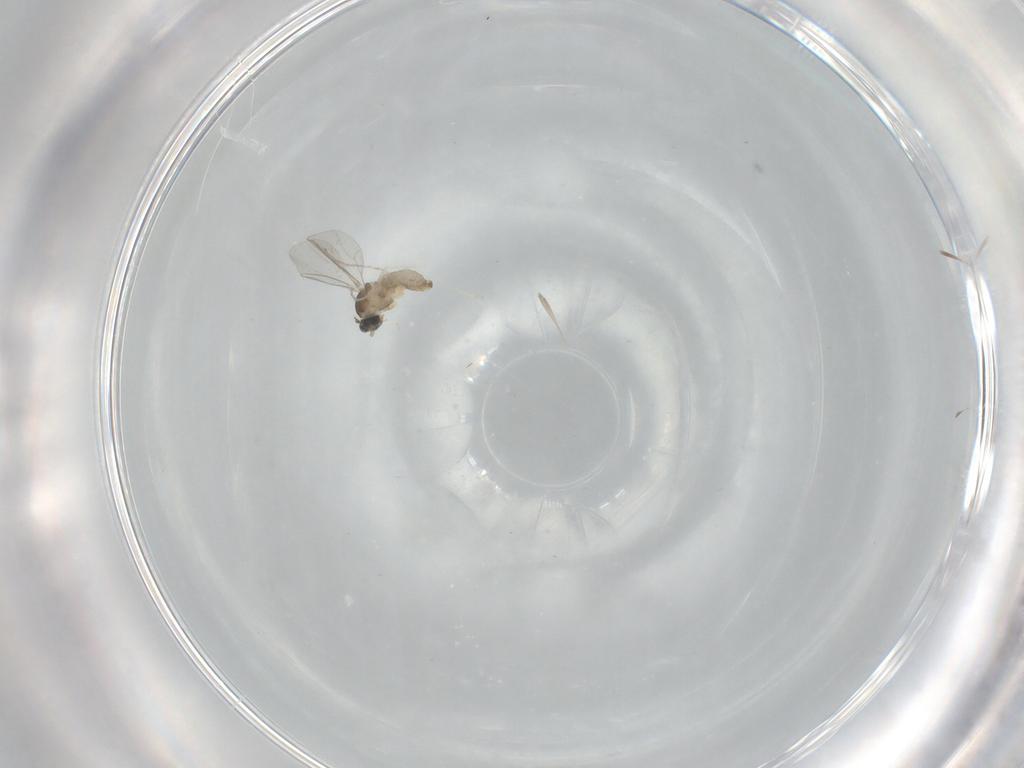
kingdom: Animalia
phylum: Arthropoda
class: Insecta
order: Diptera
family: Cecidomyiidae
